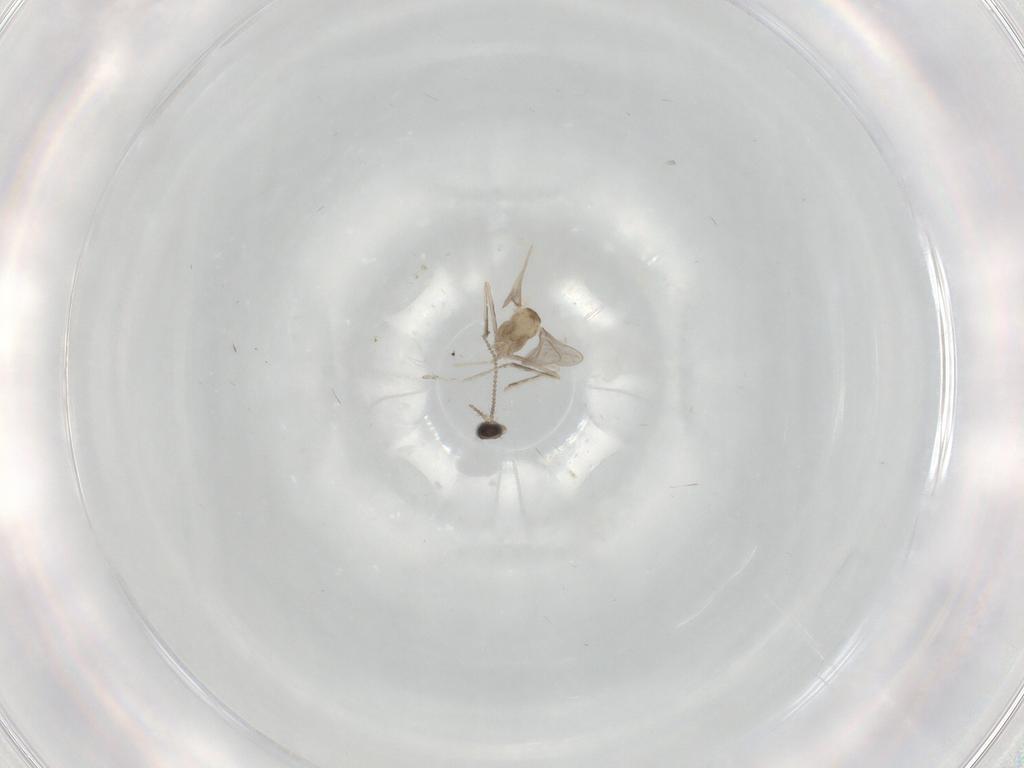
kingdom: Animalia
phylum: Arthropoda
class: Insecta
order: Diptera
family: Cecidomyiidae
